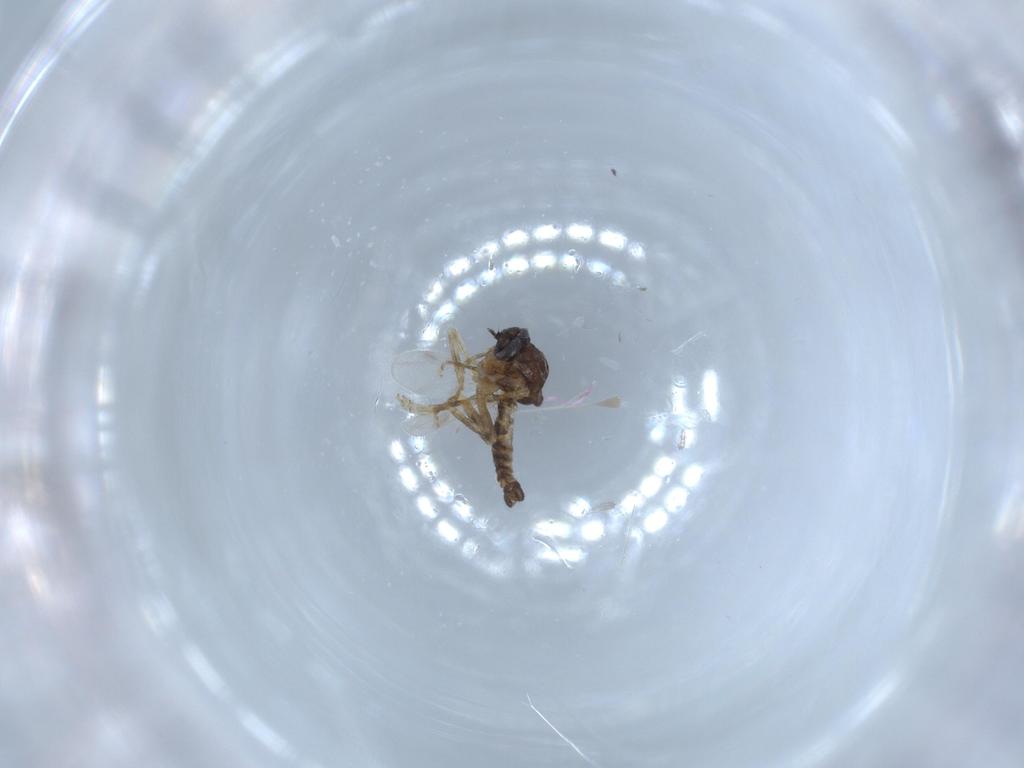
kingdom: Animalia
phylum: Arthropoda
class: Insecta
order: Diptera
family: Ceratopogonidae
